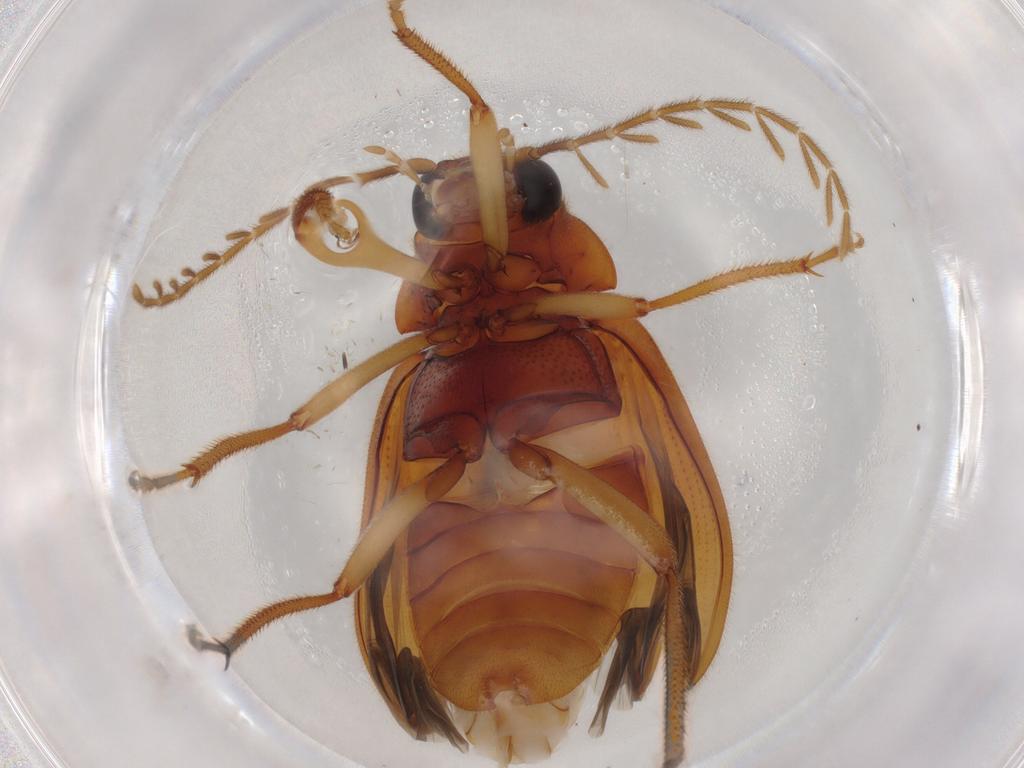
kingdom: Animalia
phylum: Arthropoda
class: Insecta
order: Coleoptera
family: Ptilodactylidae
